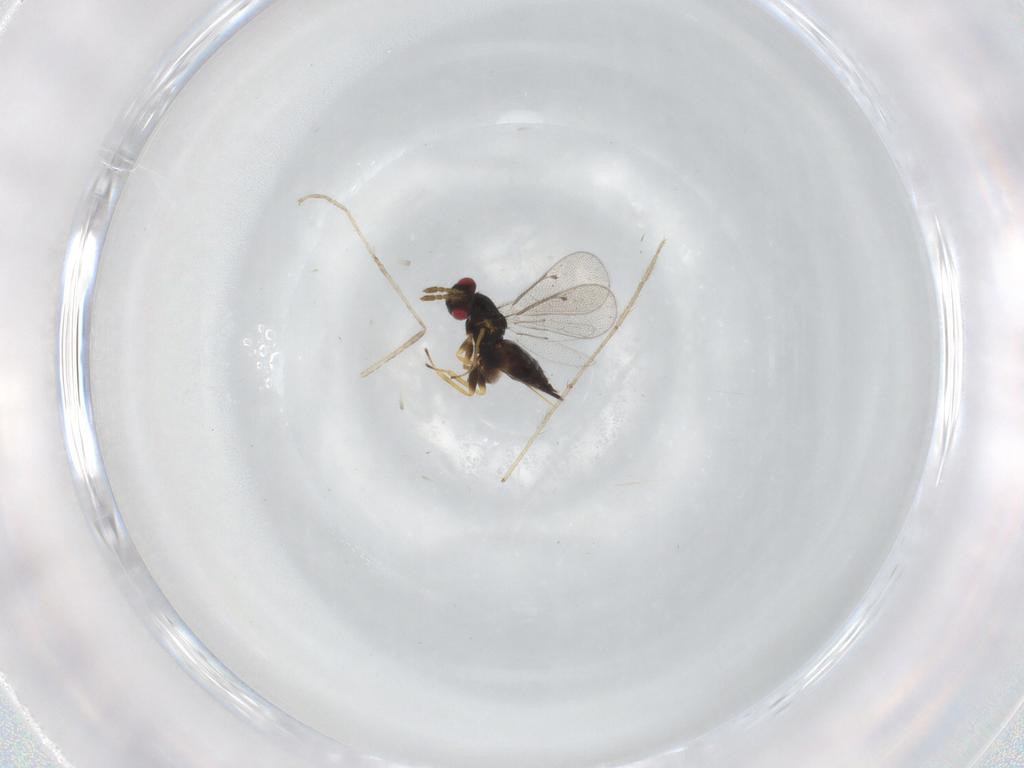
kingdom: Animalia
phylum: Arthropoda
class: Insecta
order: Hymenoptera
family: Eulophidae
